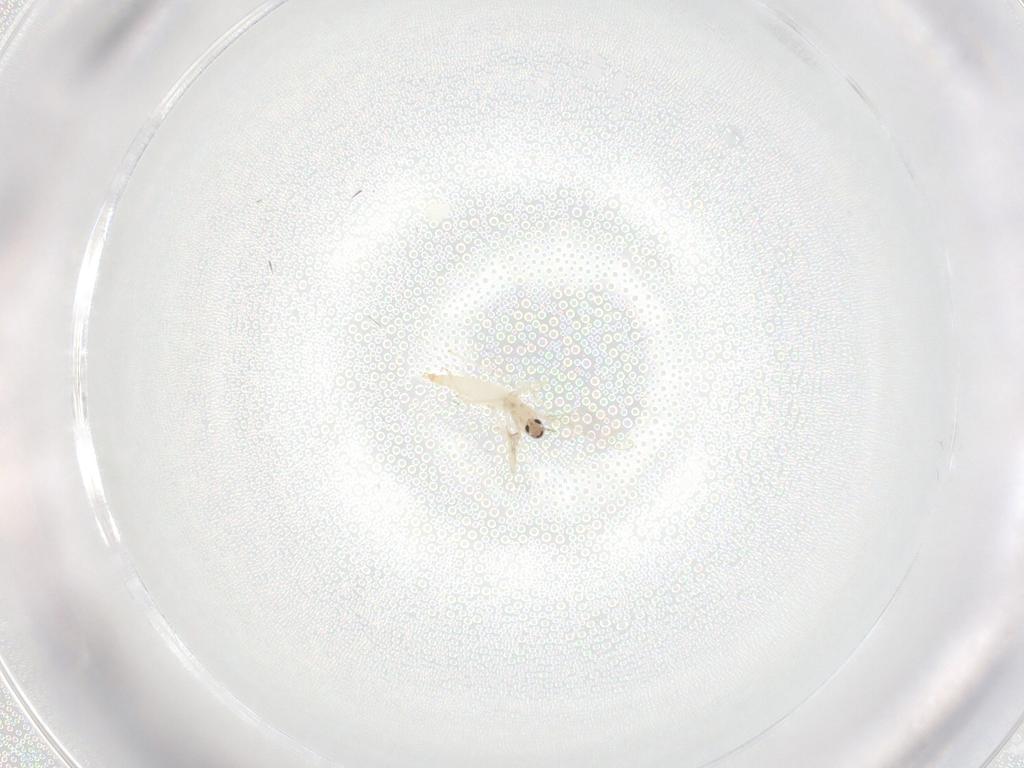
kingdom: Animalia
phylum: Arthropoda
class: Insecta
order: Diptera
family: Cecidomyiidae
